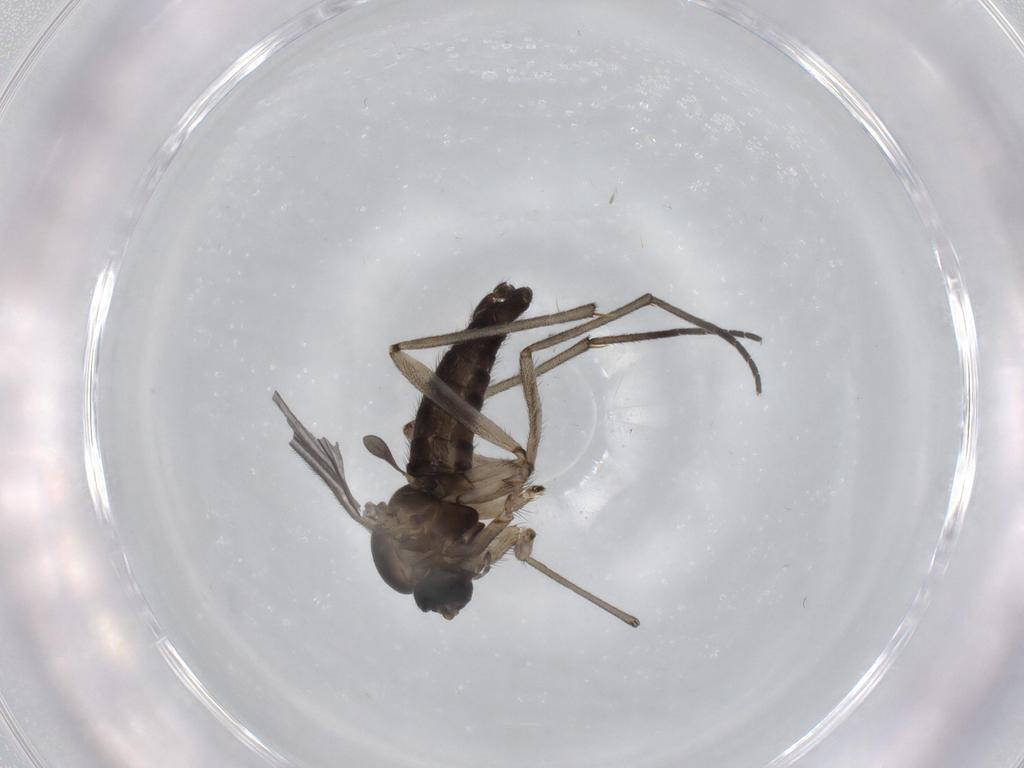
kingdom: Animalia
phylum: Arthropoda
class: Insecta
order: Diptera
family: Sciaridae
